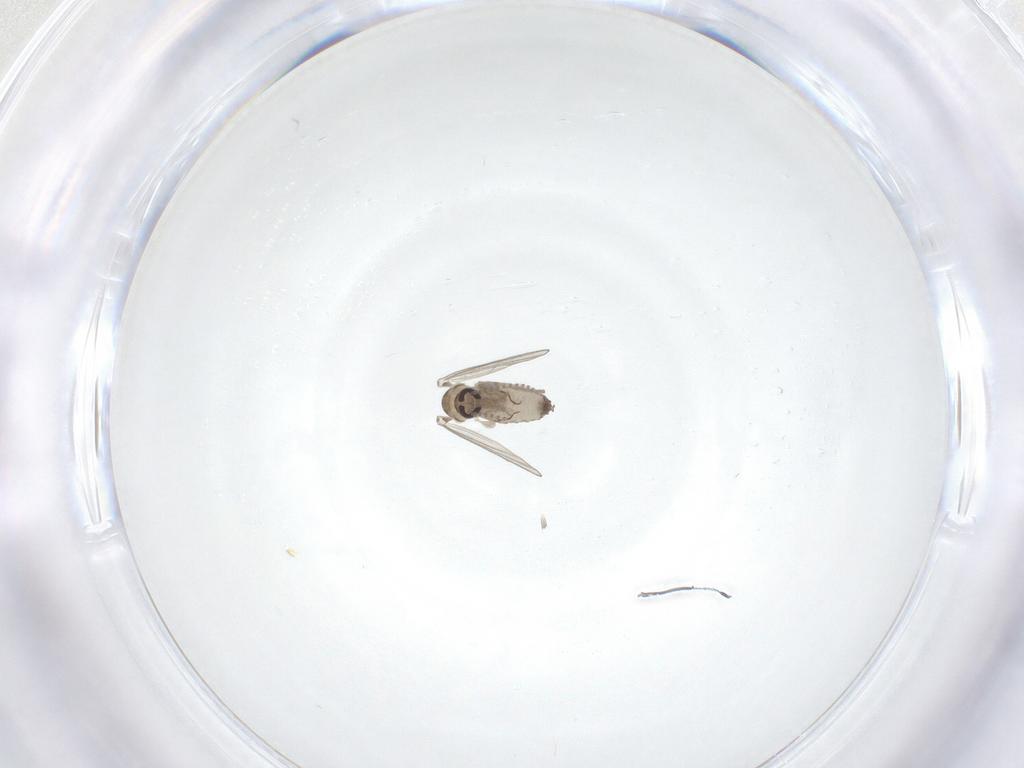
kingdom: Animalia
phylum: Arthropoda
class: Insecta
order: Diptera
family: Psychodidae
